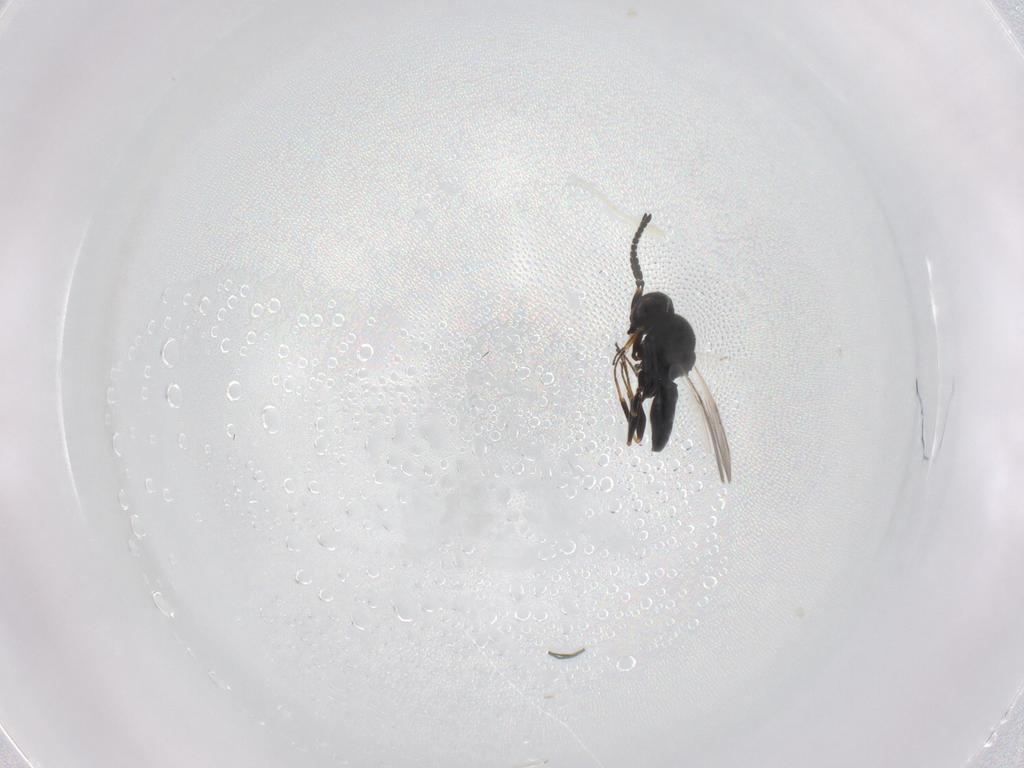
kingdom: Animalia
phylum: Arthropoda
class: Insecta
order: Hymenoptera
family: Scelionidae
